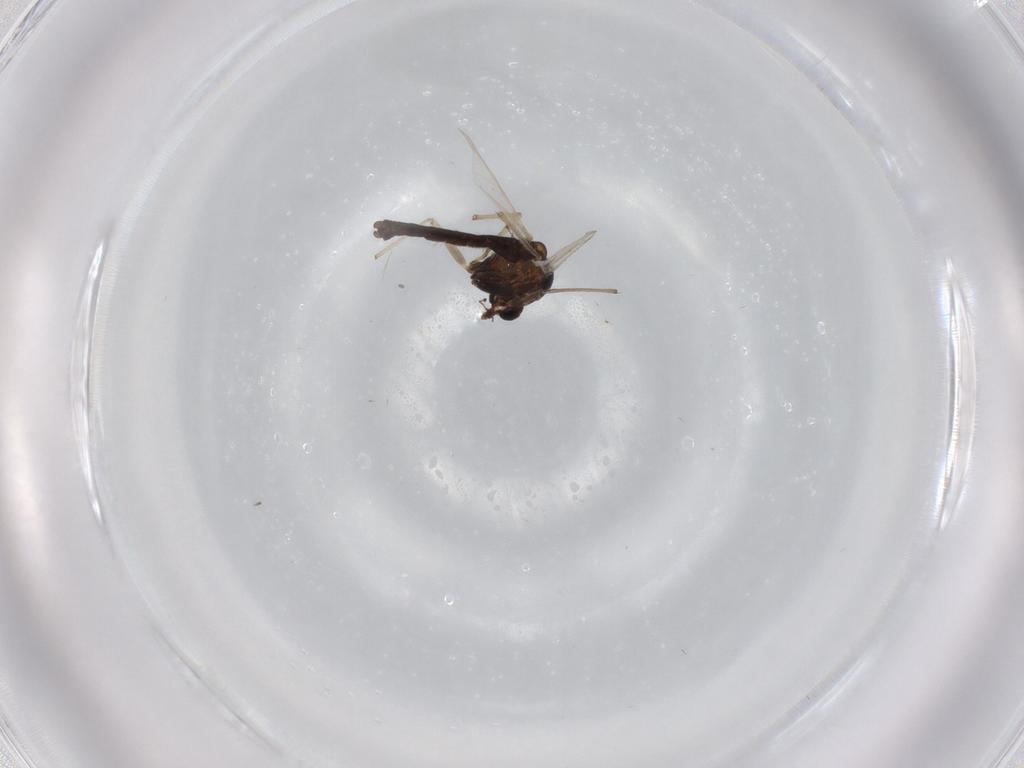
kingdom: Animalia
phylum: Arthropoda
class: Insecta
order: Diptera
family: Chironomidae
